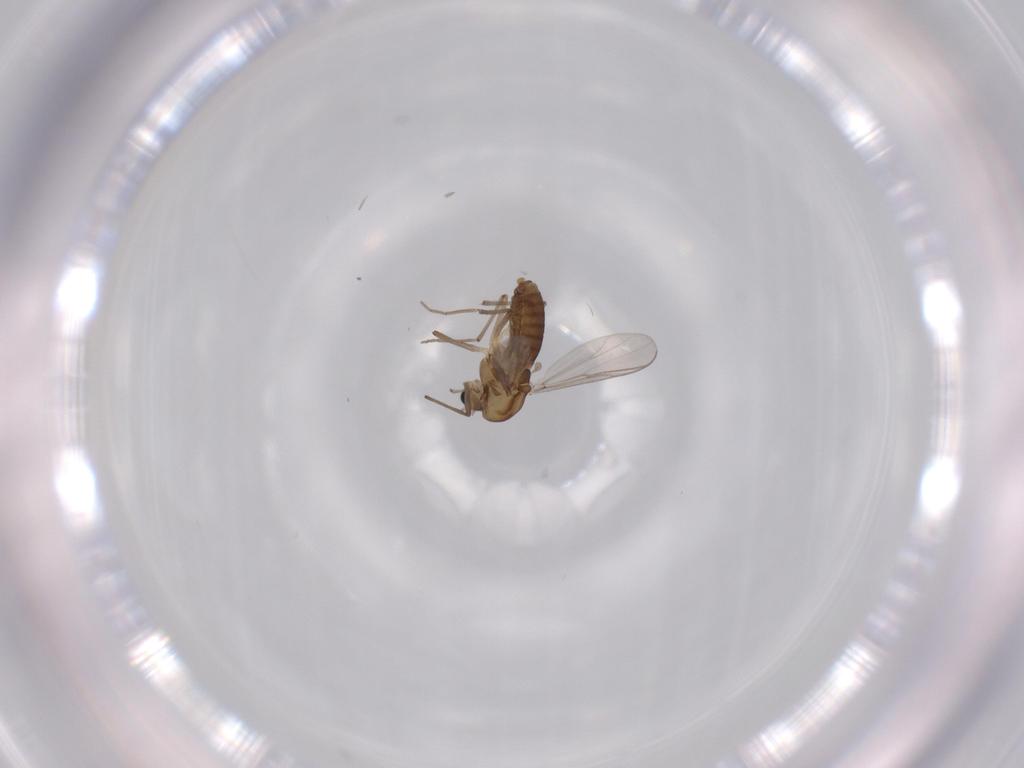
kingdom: Animalia
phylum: Arthropoda
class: Insecta
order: Diptera
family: Chironomidae
